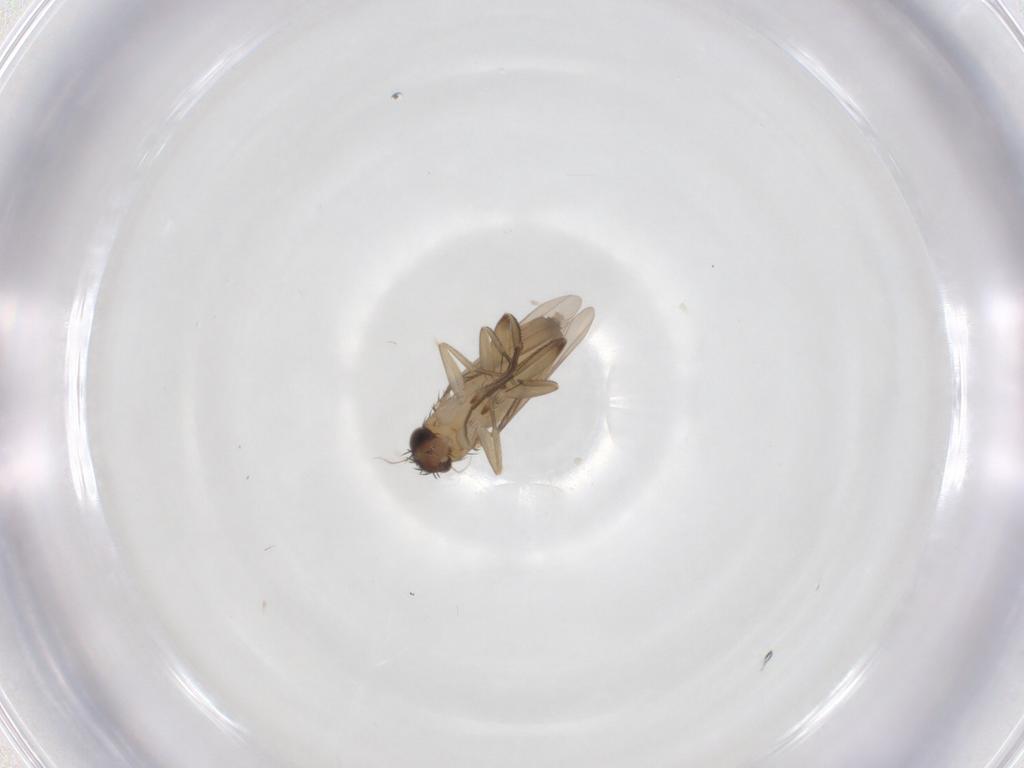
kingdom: Animalia
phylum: Arthropoda
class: Insecta
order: Diptera
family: Phoridae
